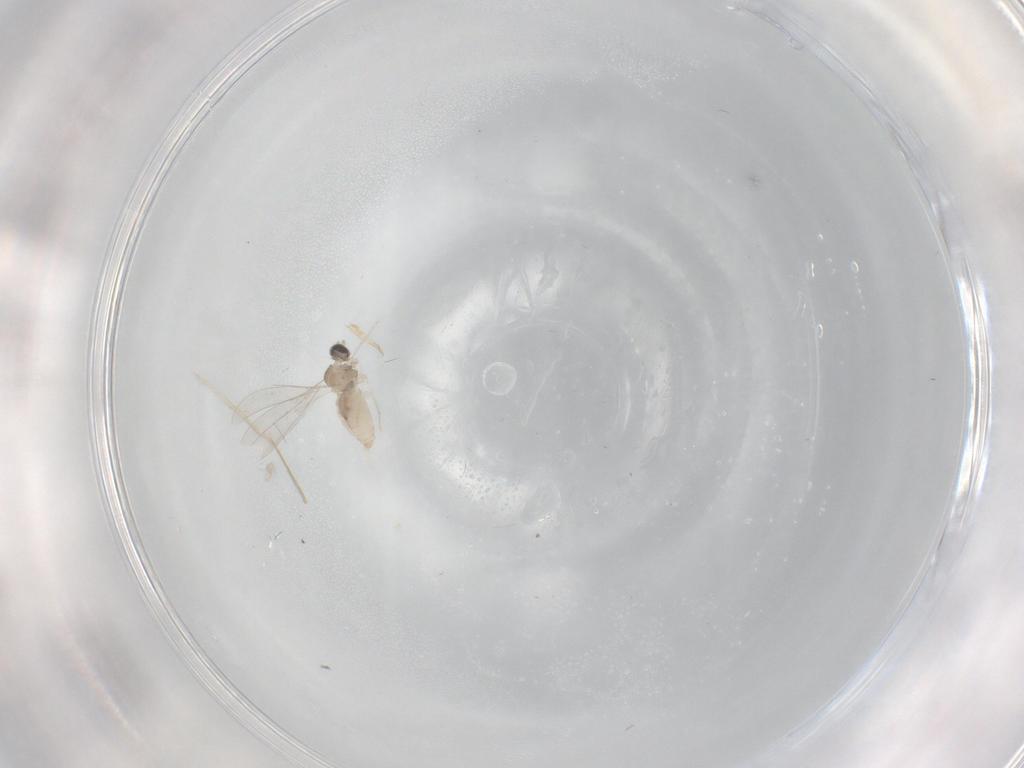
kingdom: Animalia
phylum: Arthropoda
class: Insecta
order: Diptera
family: Cecidomyiidae
